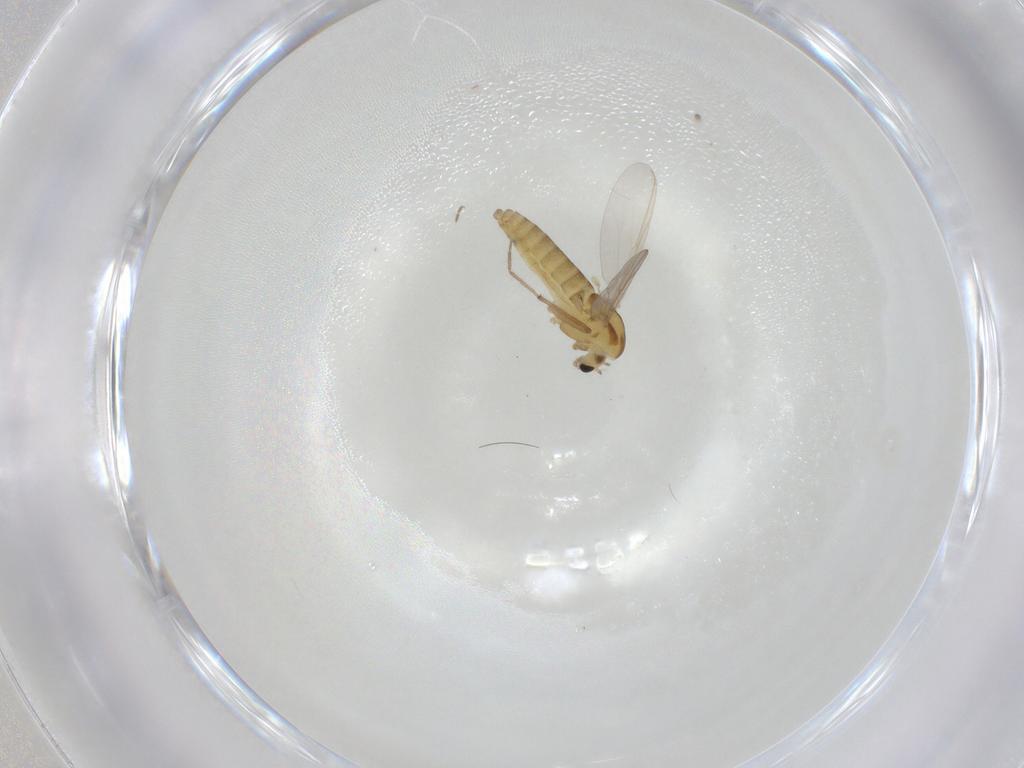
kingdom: Animalia
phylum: Arthropoda
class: Insecta
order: Diptera
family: Chironomidae
